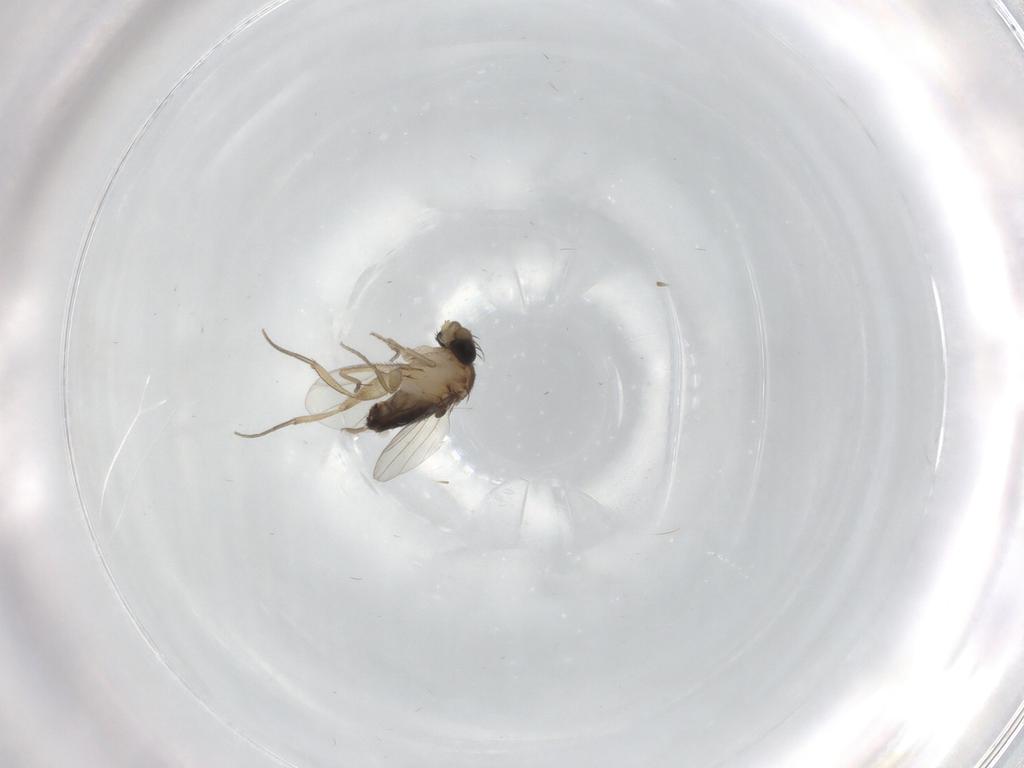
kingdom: Animalia
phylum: Arthropoda
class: Insecta
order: Diptera
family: Phoridae
